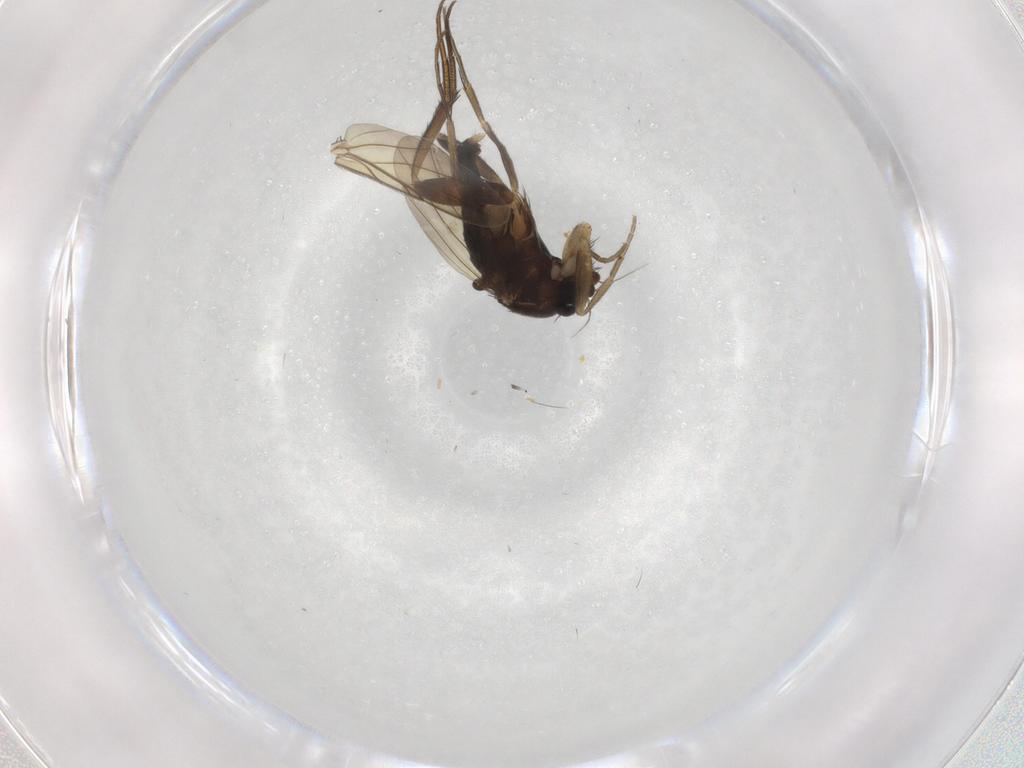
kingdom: Animalia
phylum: Arthropoda
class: Insecta
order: Diptera
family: Phoridae
